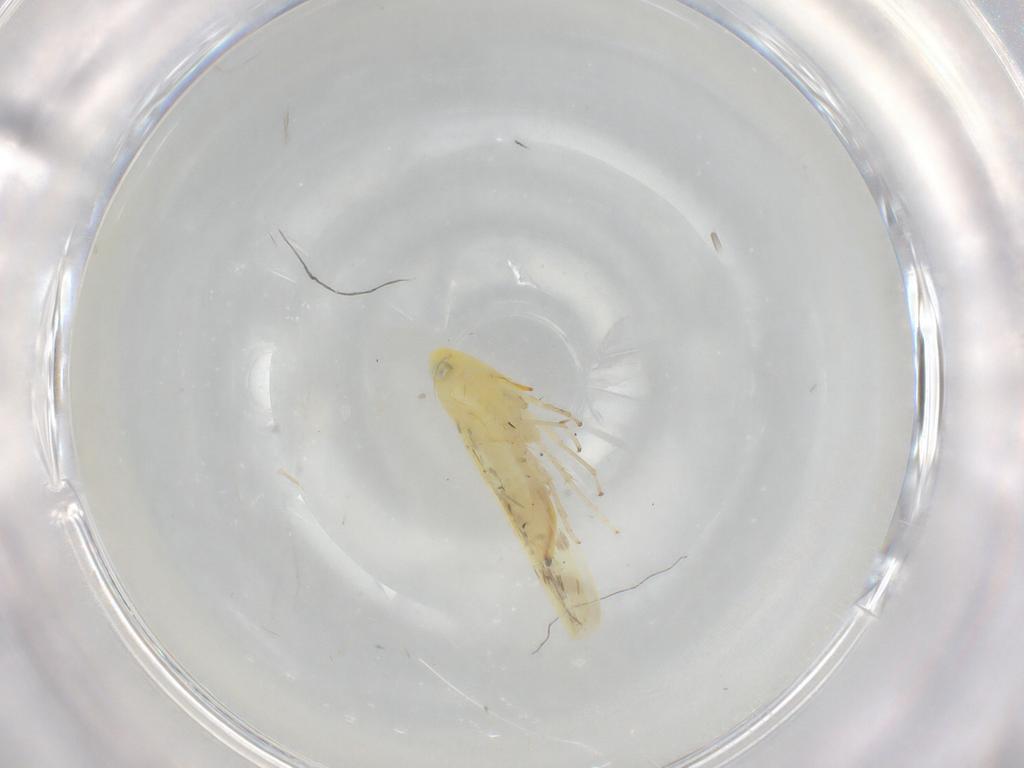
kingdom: Animalia
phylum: Arthropoda
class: Insecta
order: Hemiptera
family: Cicadellidae
